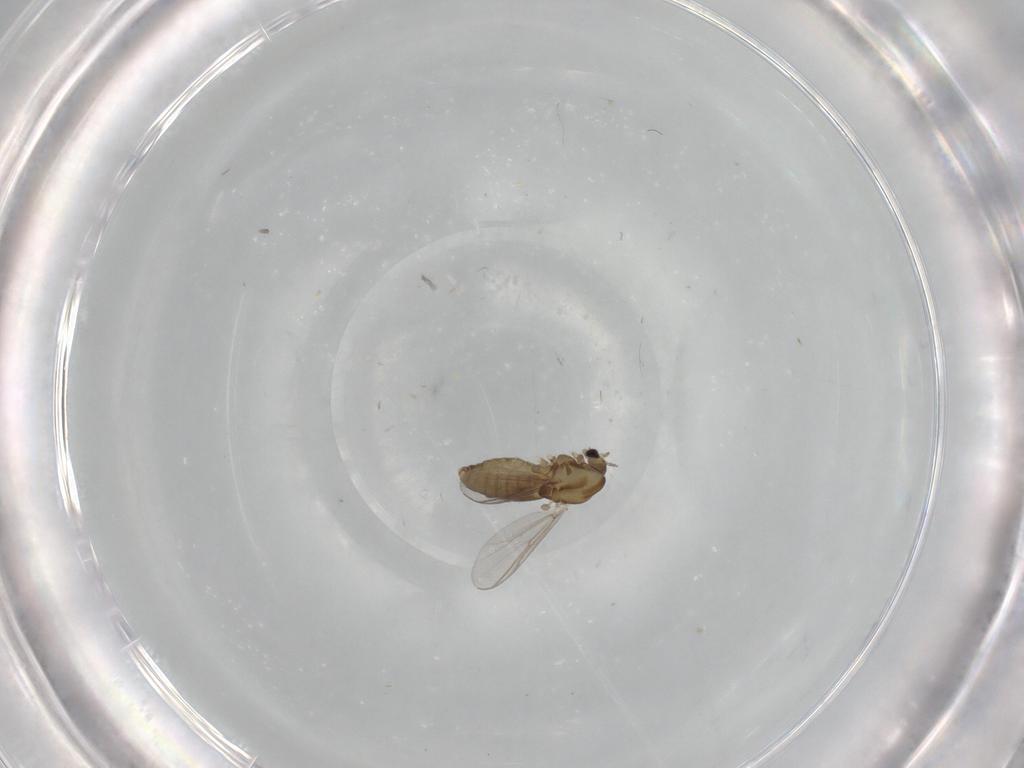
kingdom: Animalia
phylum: Arthropoda
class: Insecta
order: Diptera
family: Chironomidae
